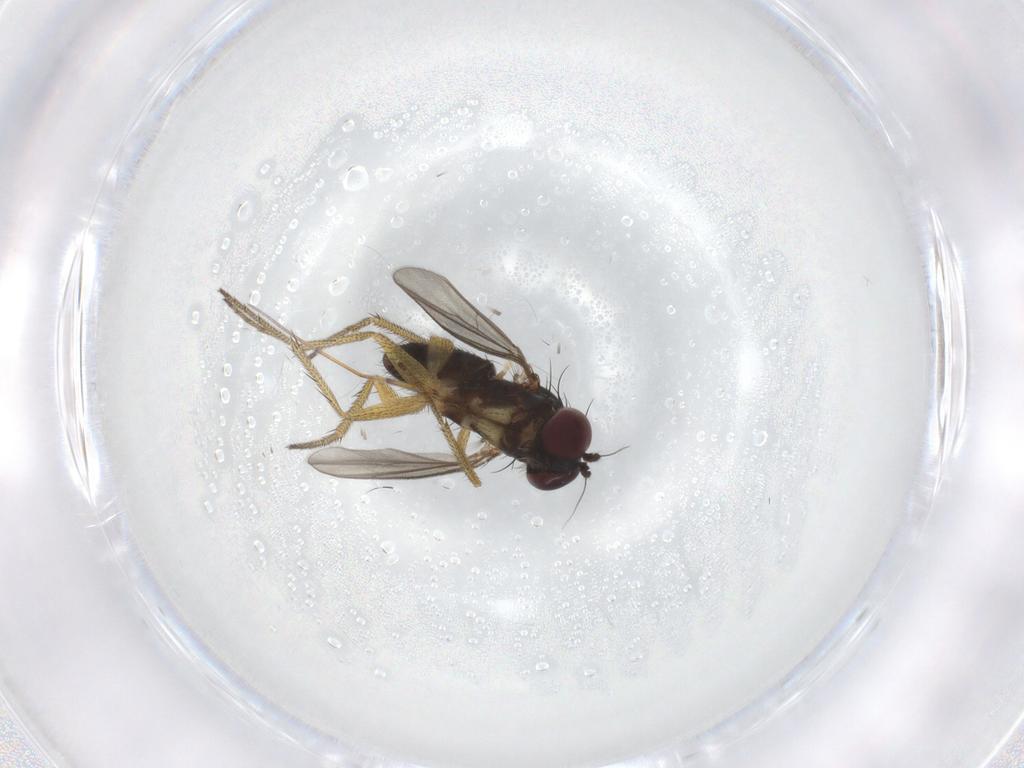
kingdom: Animalia
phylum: Arthropoda
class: Insecta
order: Diptera
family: Dolichopodidae
